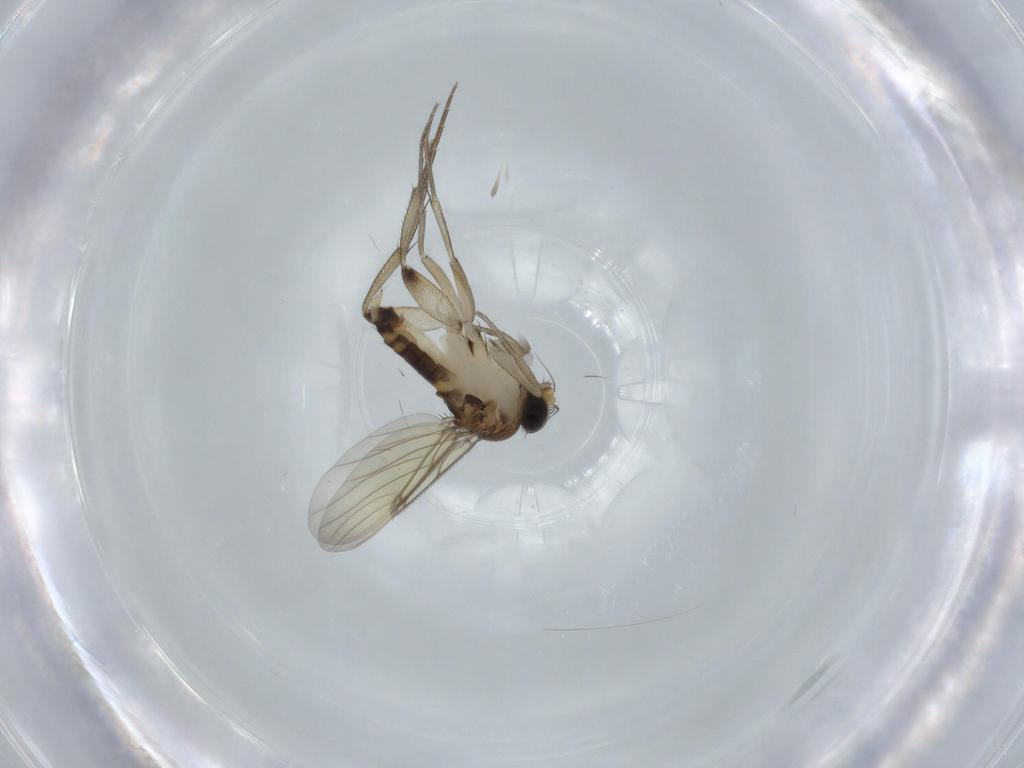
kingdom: Animalia
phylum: Arthropoda
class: Insecta
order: Diptera
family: Phoridae
